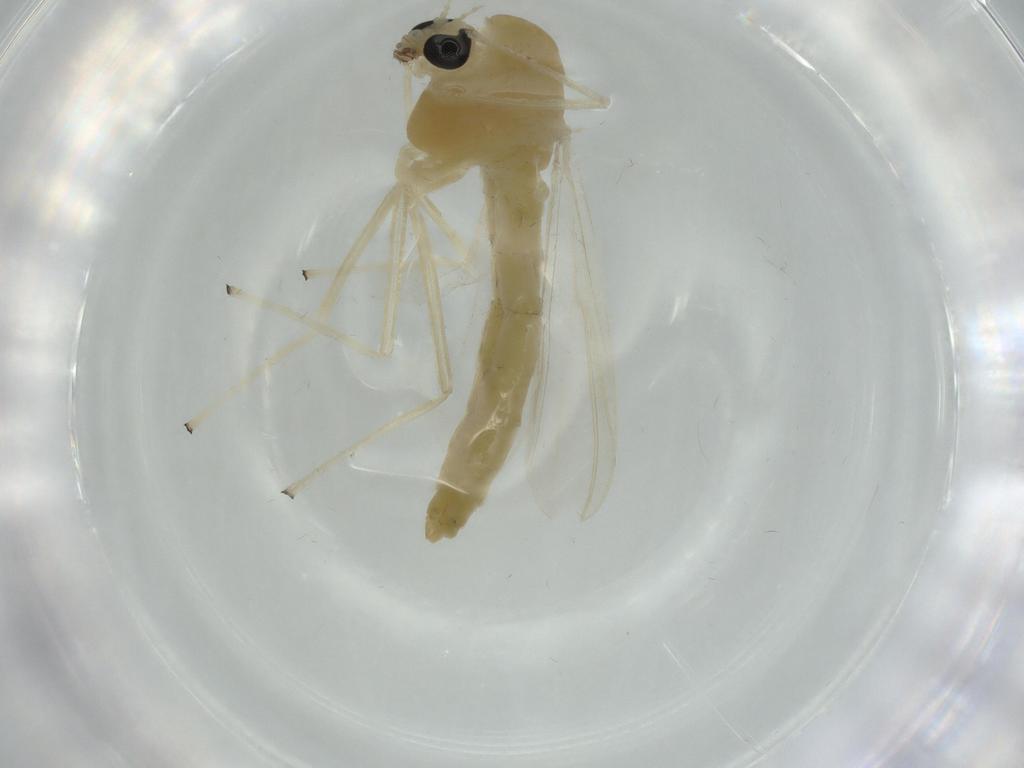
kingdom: Animalia
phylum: Arthropoda
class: Insecta
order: Diptera
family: Chironomidae
